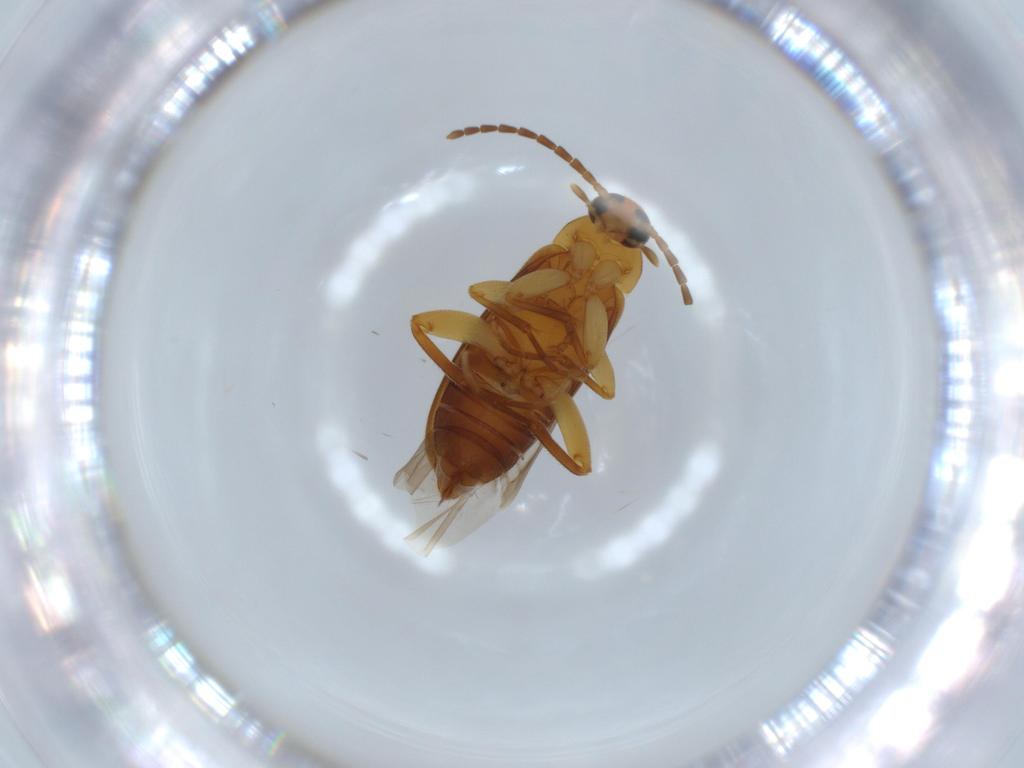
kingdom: Animalia
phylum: Arthropoda
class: Insecta
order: Coleoptera
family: Scraptiidae
